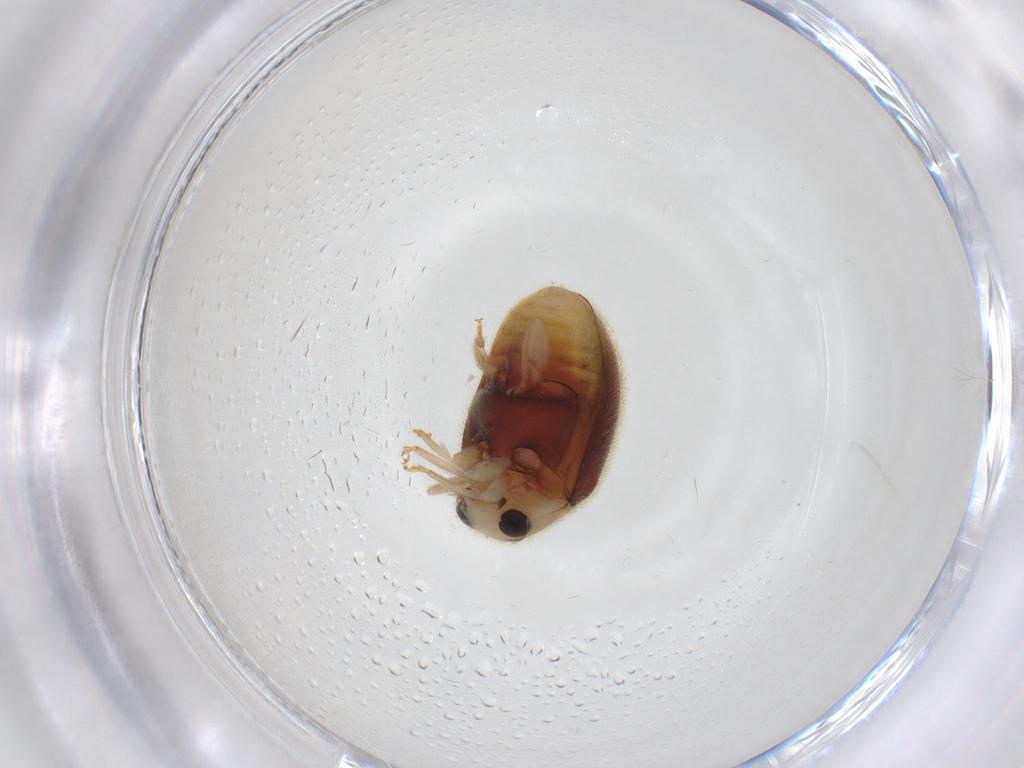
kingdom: Animalia
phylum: Arthropoda
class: Insecta
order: Coleoptera
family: Coccinellidae
